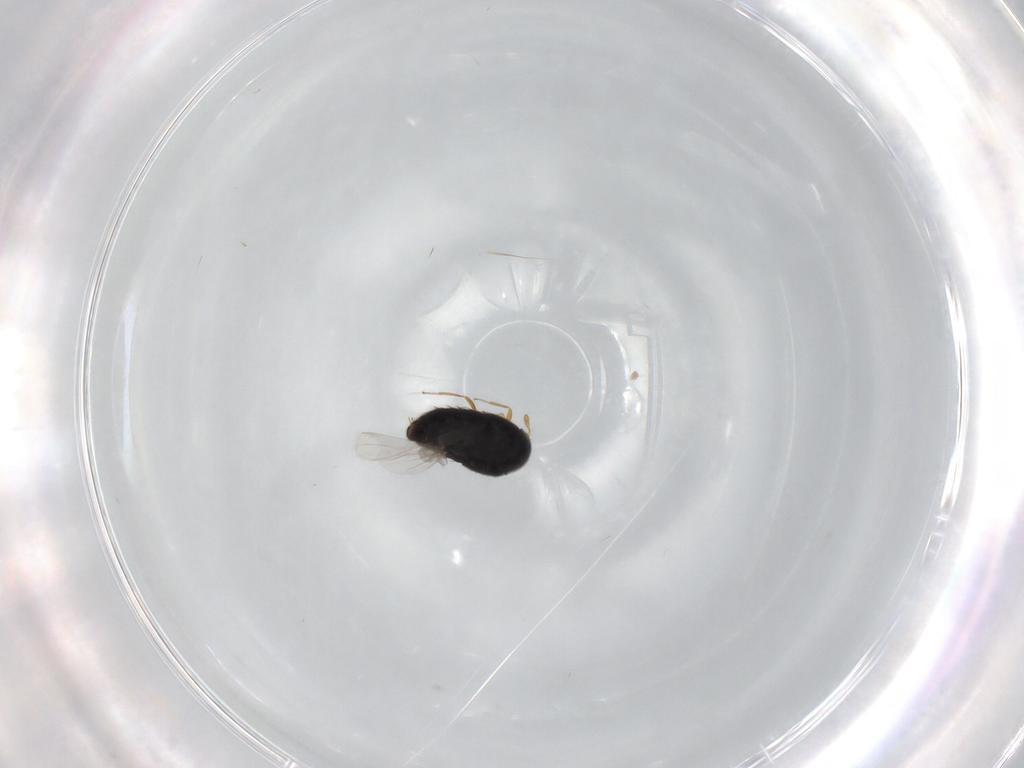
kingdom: Animalia
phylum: Arthropoda
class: Insecta
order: Coleoptera
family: Staphylinidae
